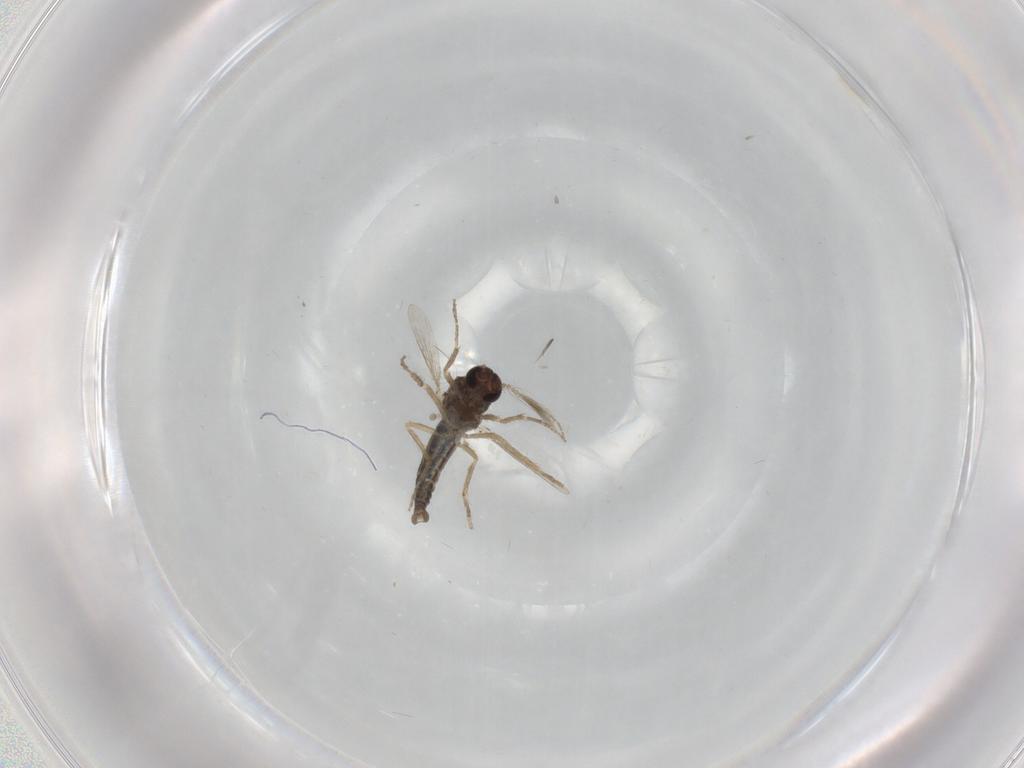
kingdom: Animalia
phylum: Arthropoda
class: Insecta
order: Diptera
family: Ceratopogonidae
